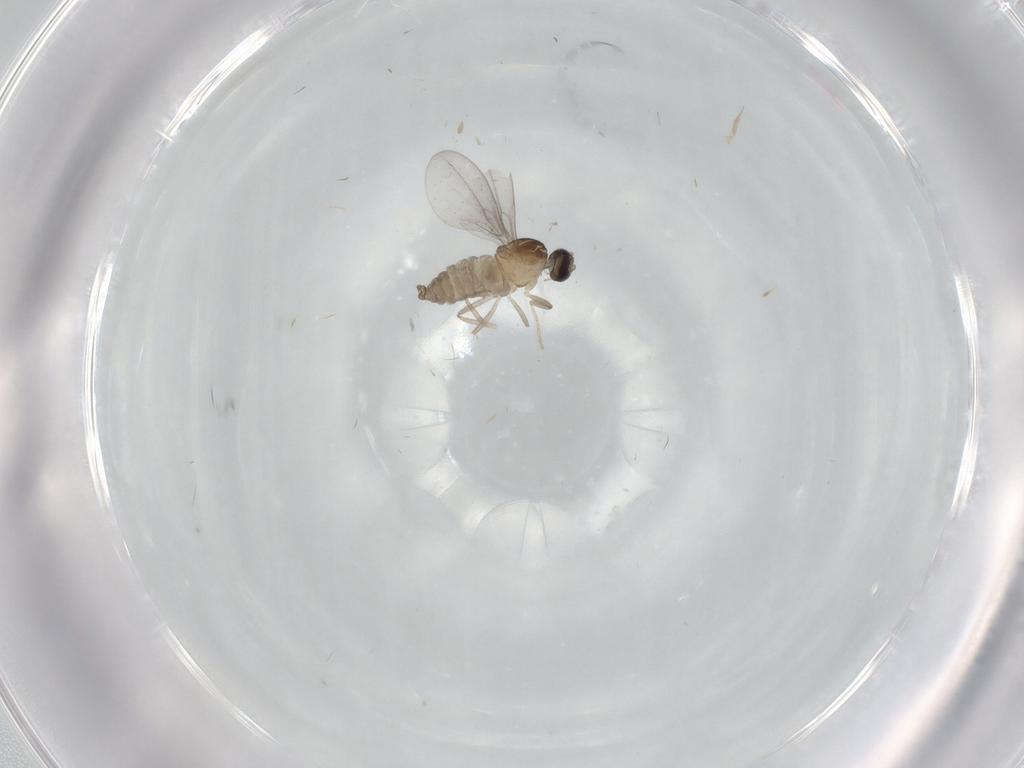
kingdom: Animalia
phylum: Arthropoda
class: Insecta
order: Diptera
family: Cecidomyiidae
